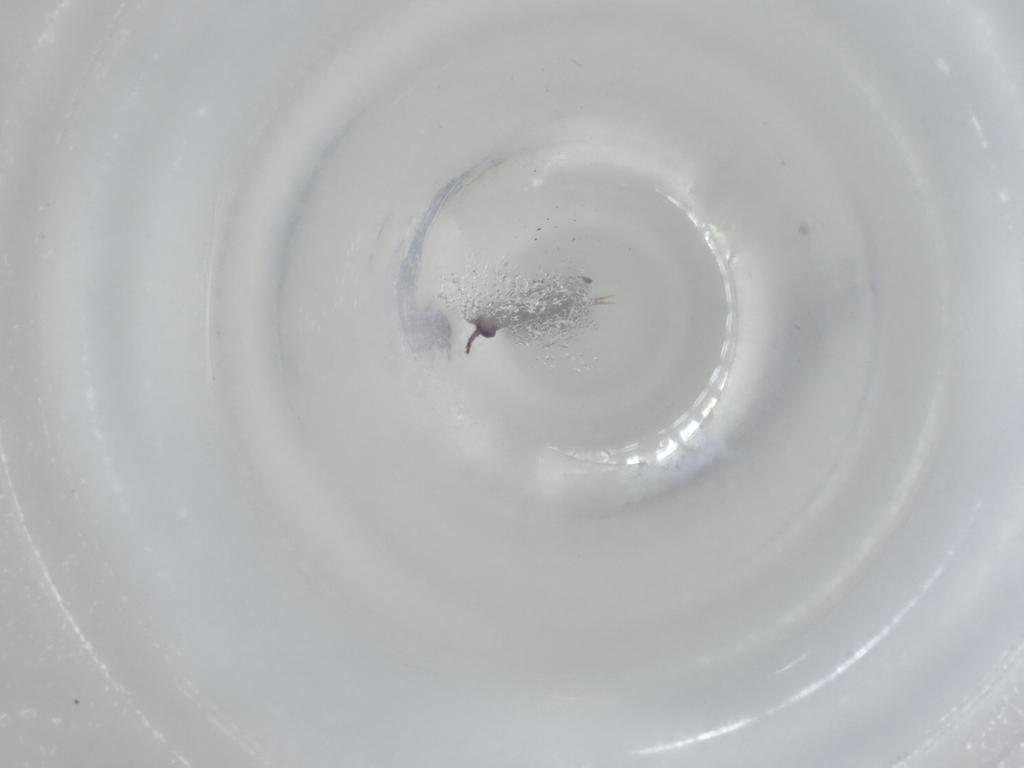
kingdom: Animalia
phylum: Arthropoda
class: Collembola
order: Entomobryomorpha
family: Isotomidae
